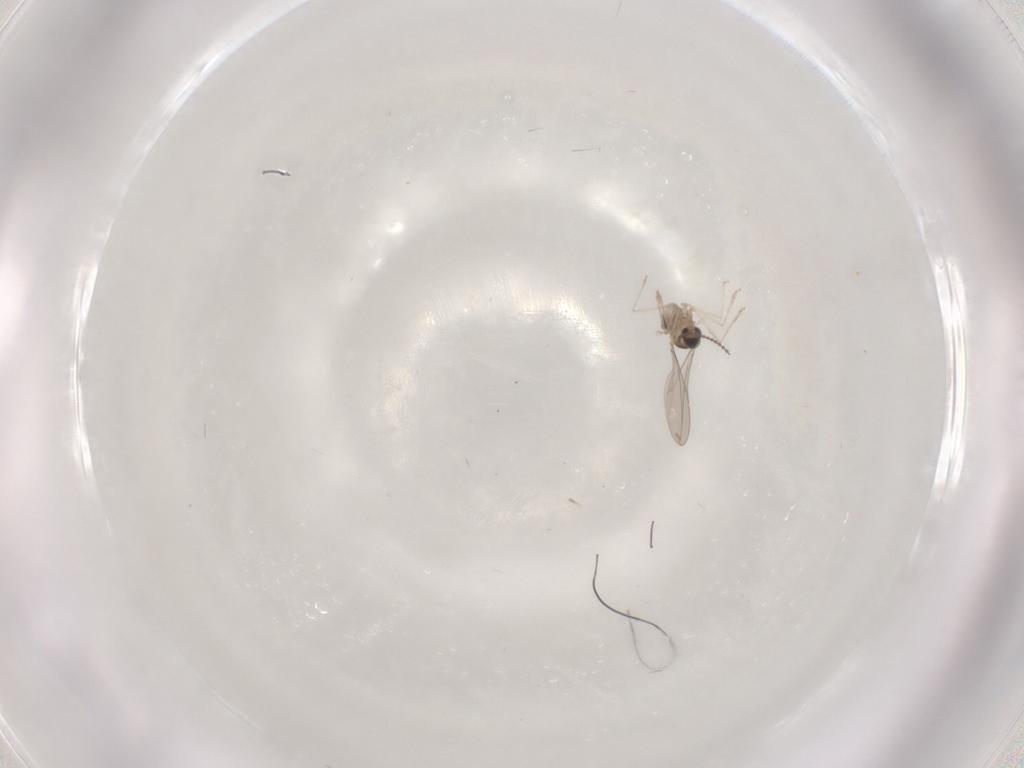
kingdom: Animalia
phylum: Arthropoda
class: Insecta
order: Diptera
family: Cecidomyiidae
